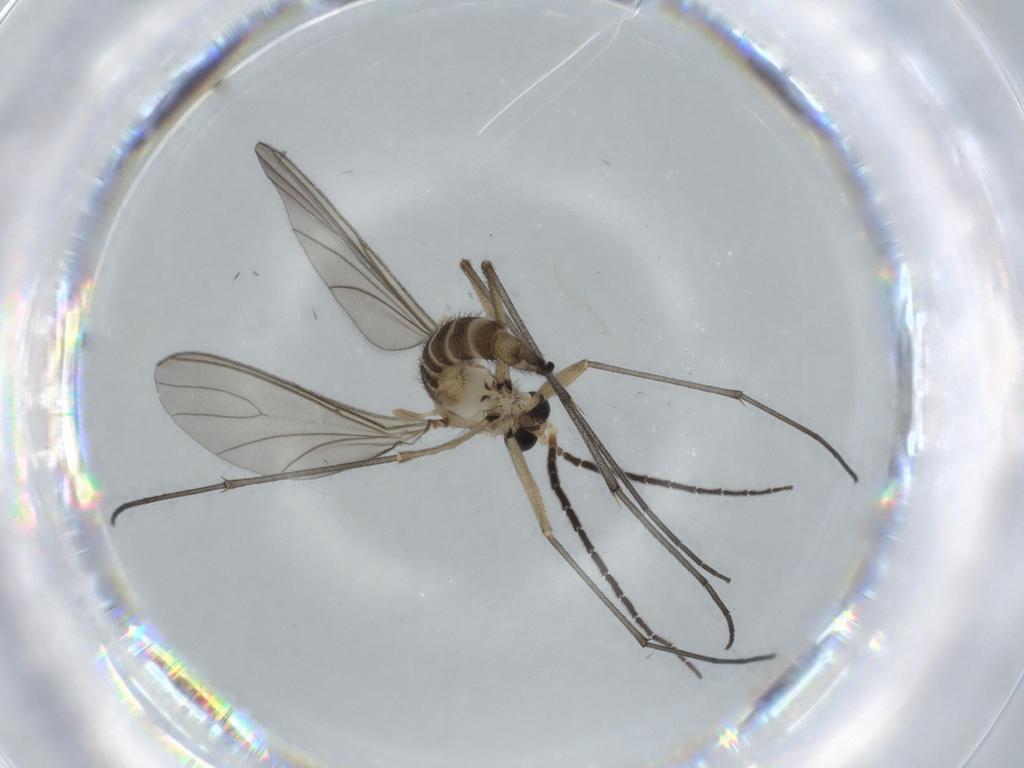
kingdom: Animalia
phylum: Arthropoda
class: Insecta
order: Diptera
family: Sciaridae
